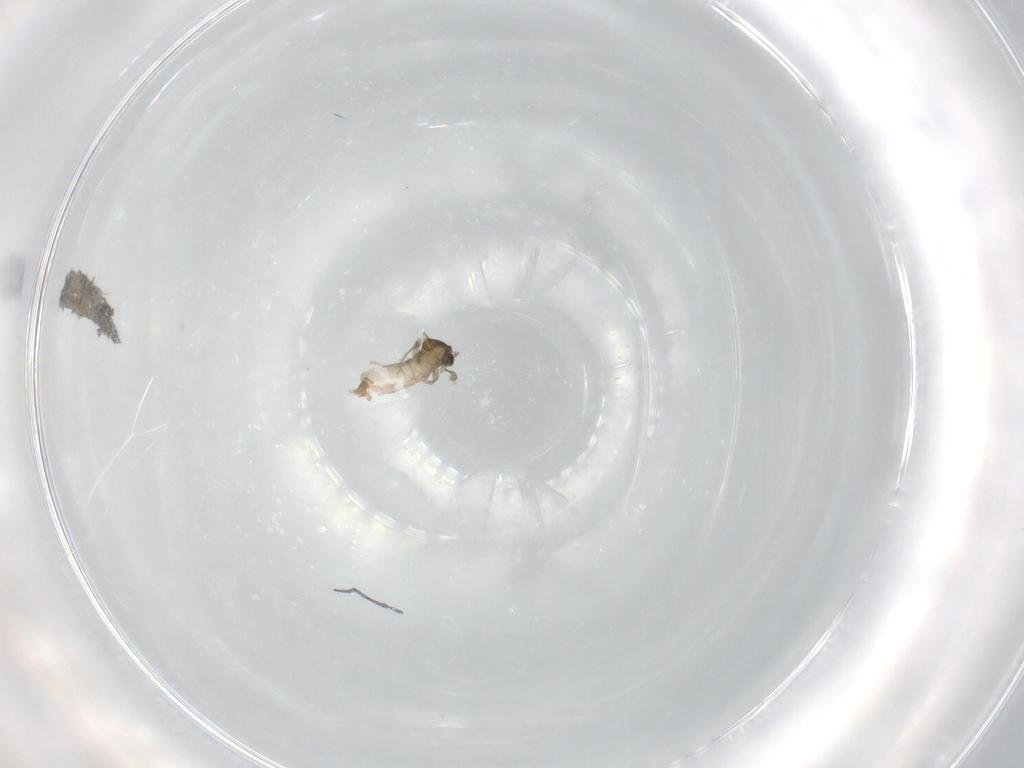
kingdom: Animalia
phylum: Arthropoda
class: Insecta
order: Diptera
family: Cecidomyiidae
